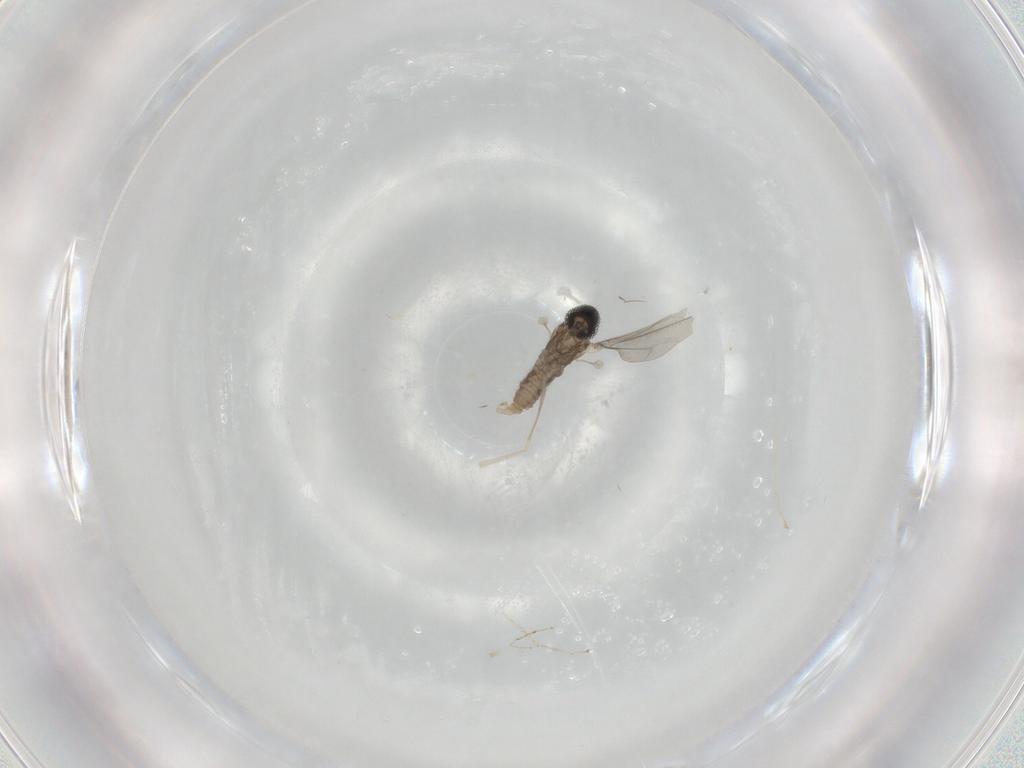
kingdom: Animalia
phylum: Arthropoda
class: Insecta
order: Diptera
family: Cecidomyiidae
